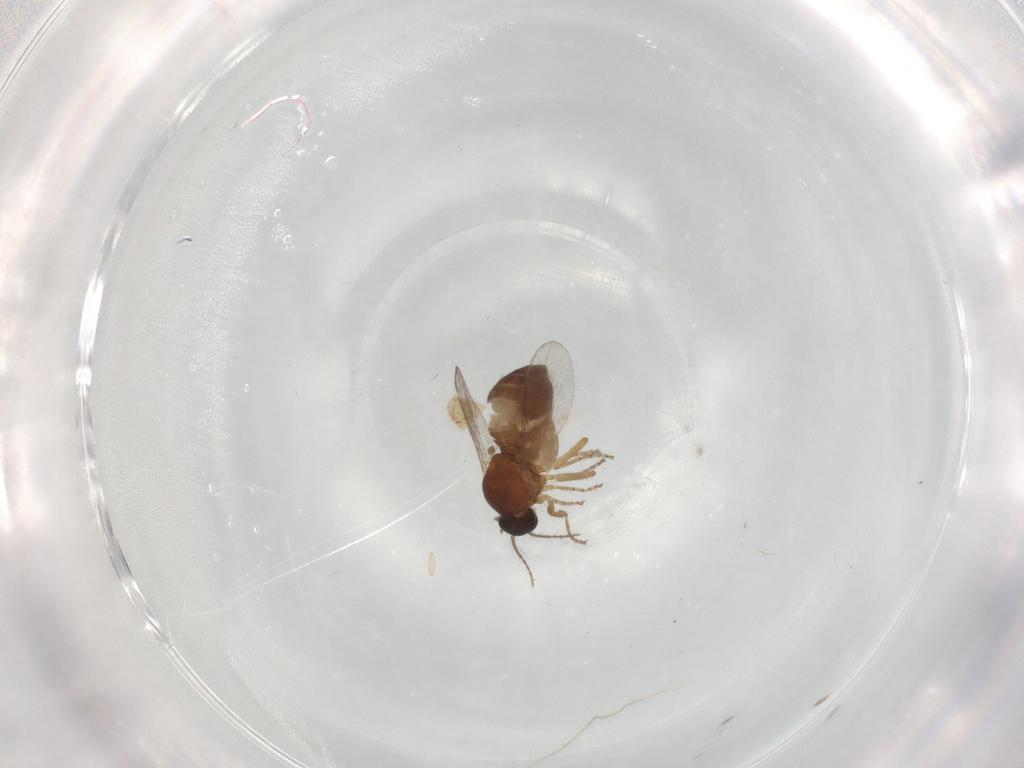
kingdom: Animalia
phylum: Arthropoda
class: Insecta
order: Diptera
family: Ceratopogonidae
